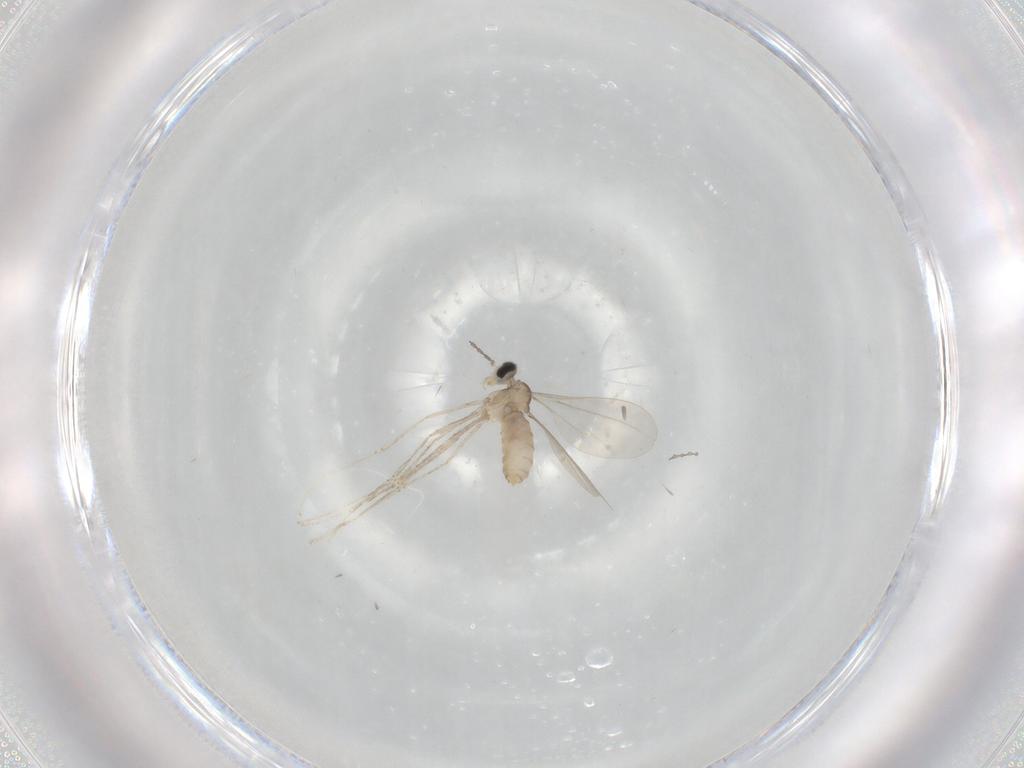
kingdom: Animalia
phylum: Arthropoda
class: Insecta
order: Diptera
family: Cecidomyiidae
